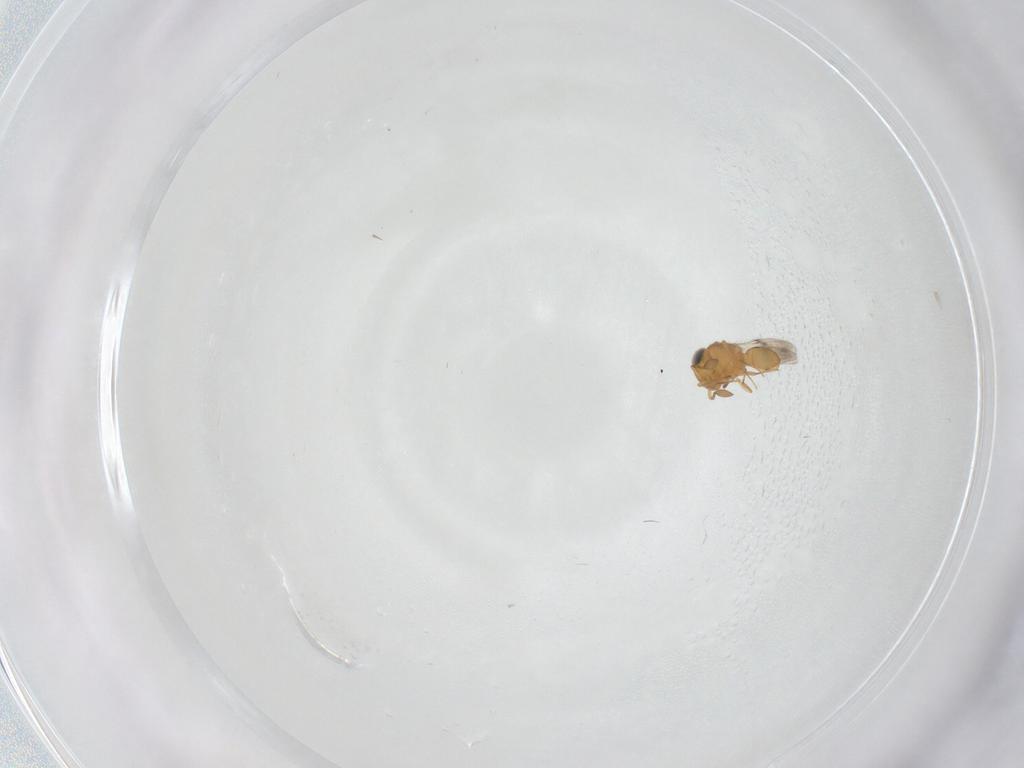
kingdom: Animalia
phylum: Arthropoda
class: Insecta
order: Hymenoptera
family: Scelionidae
